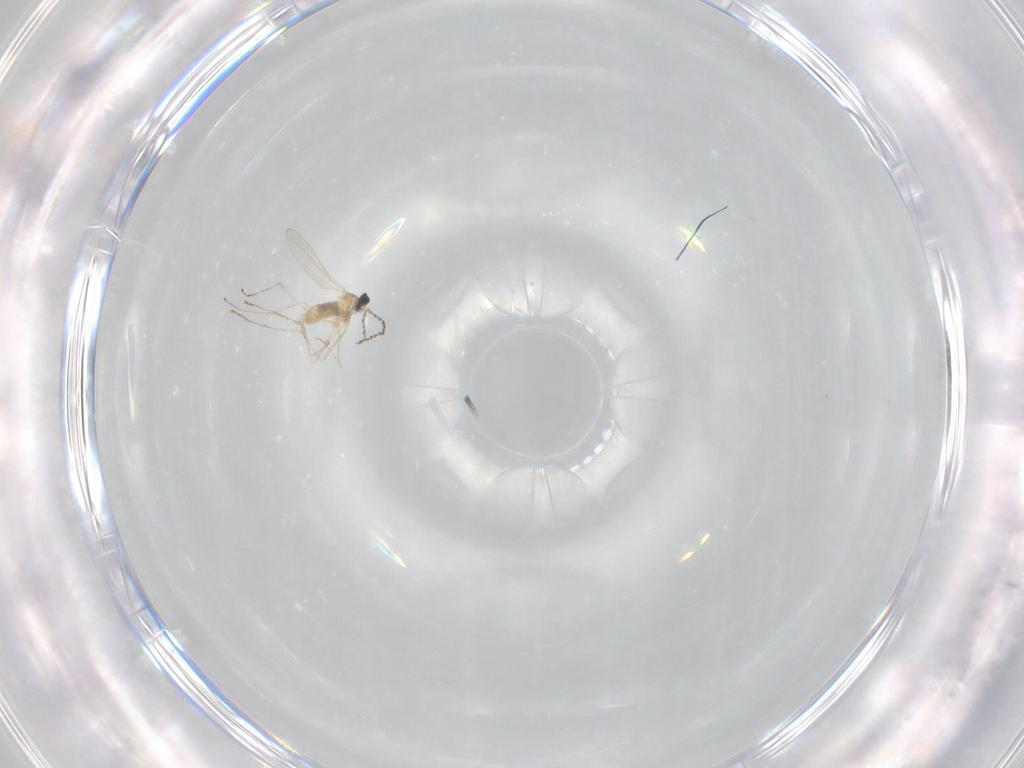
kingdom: Animalia
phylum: Arthropoda
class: Insecta
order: Diptera
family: Cecidomyiidae
